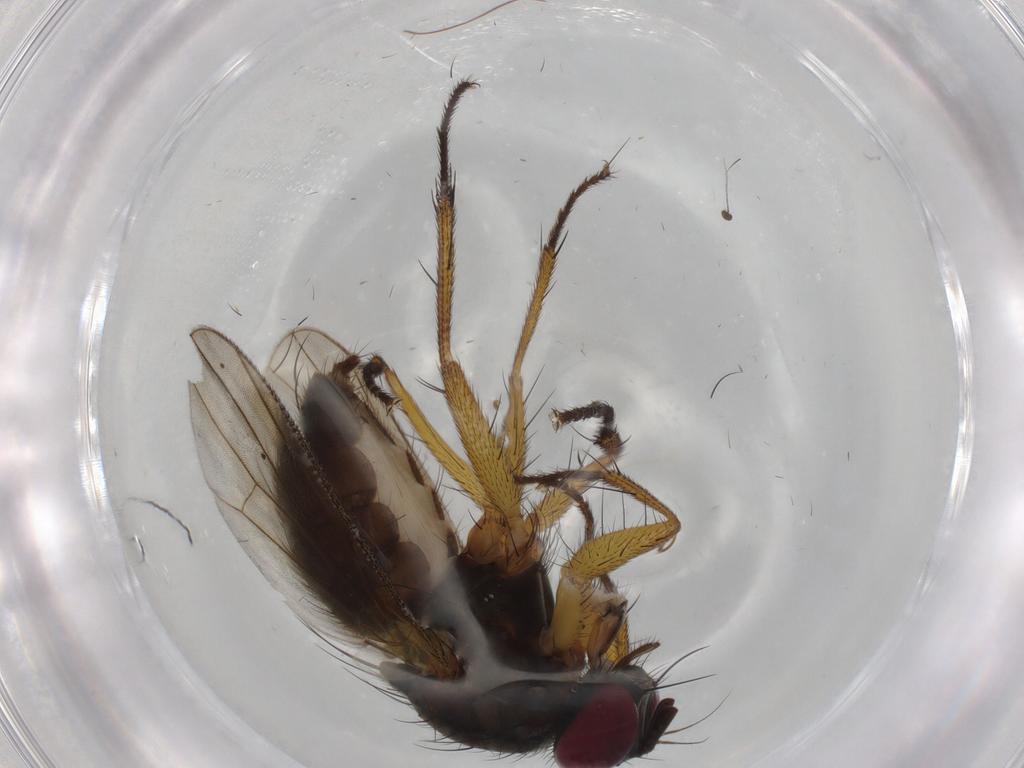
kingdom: Animalia
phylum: Arthropoda
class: Insecta
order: Diptera
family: Muscidae
